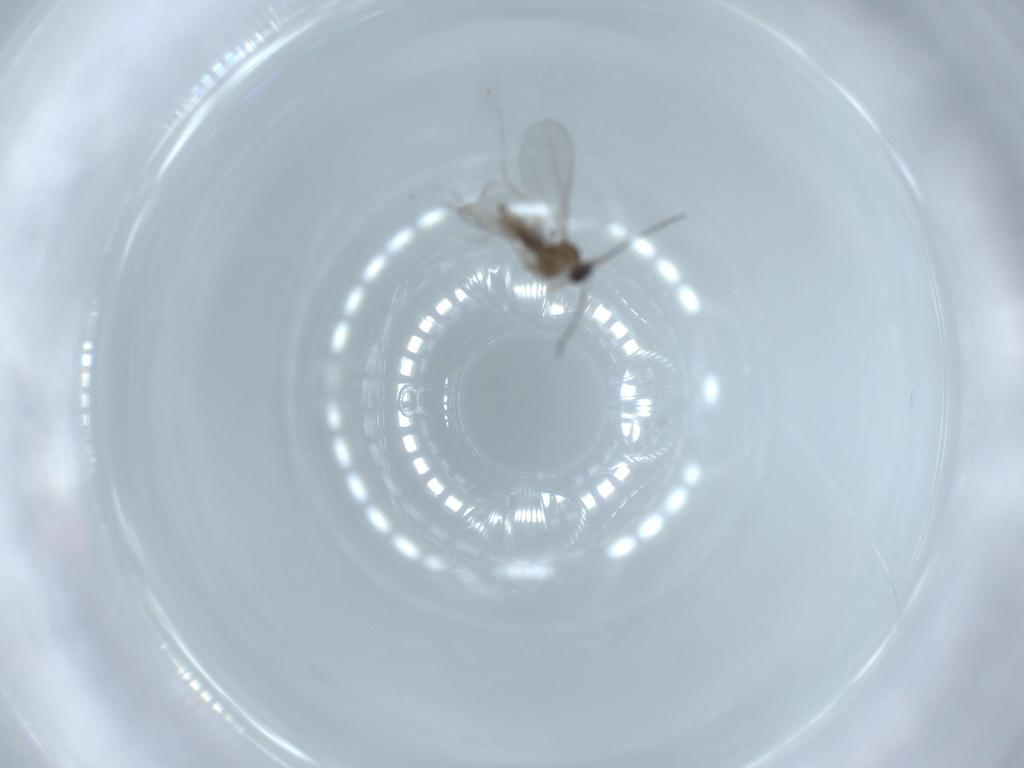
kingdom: Animalia
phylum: Arthropoda
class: Insecta
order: Diptera
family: Cecidomyiidae
